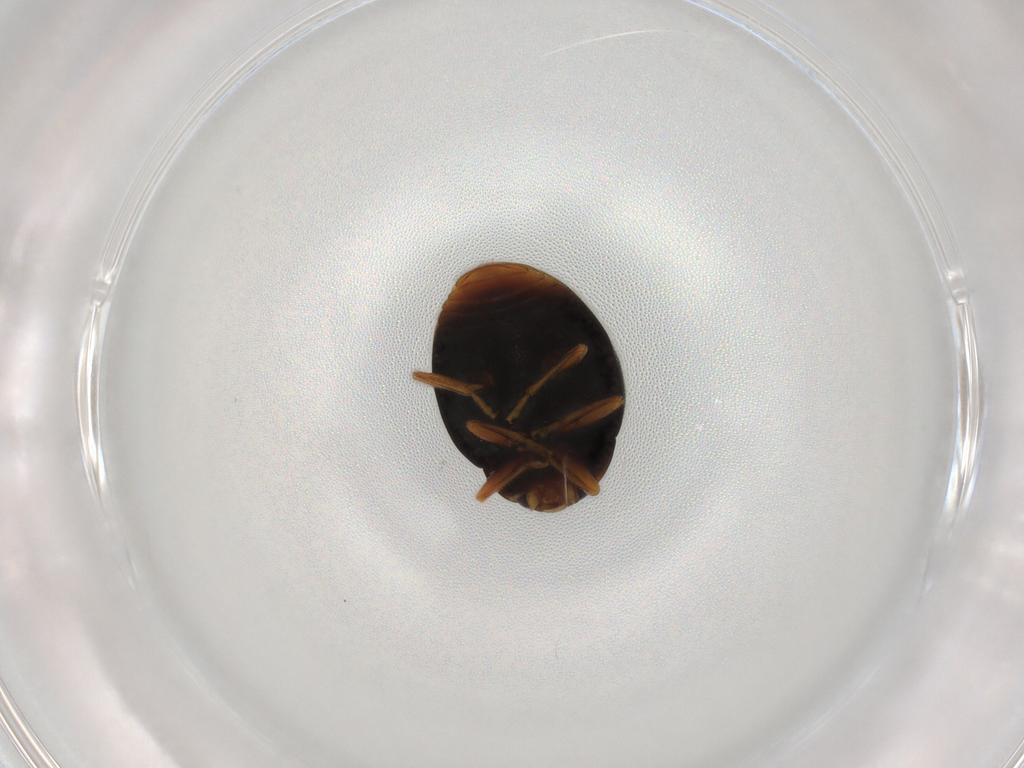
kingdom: Animalia
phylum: Arthropoda
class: Insecta
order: Coleoptera
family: Coccinellidae
